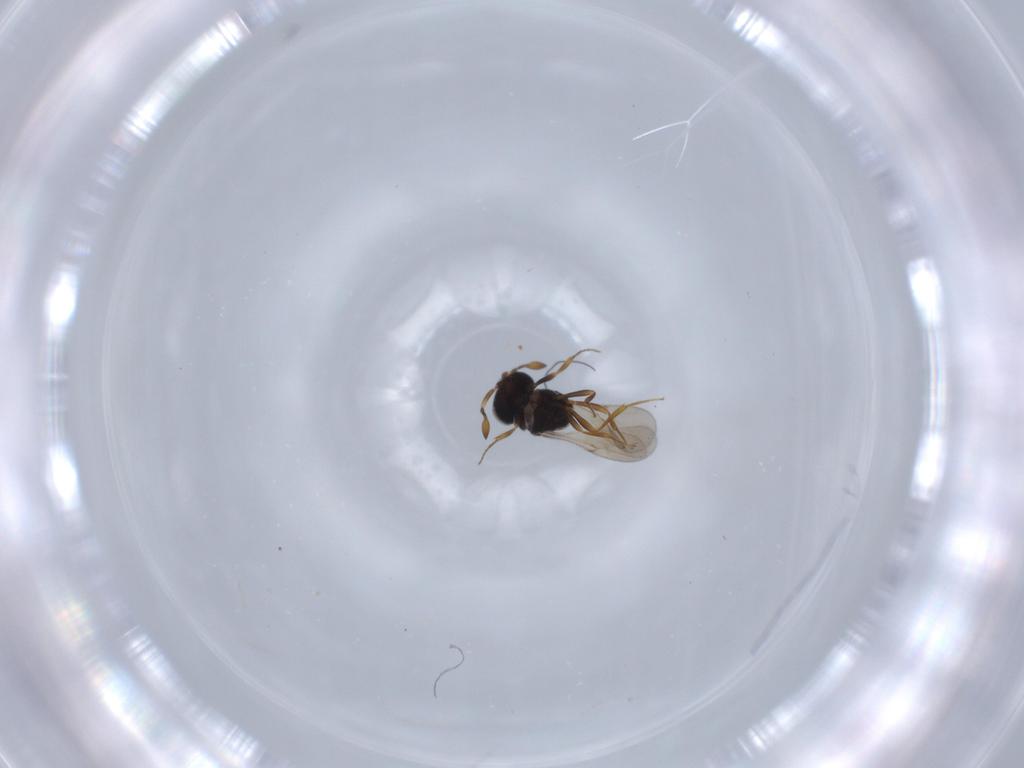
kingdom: Animalia
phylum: Arthropoda
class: Insecta
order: Hymenoptera
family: Scelionidae
